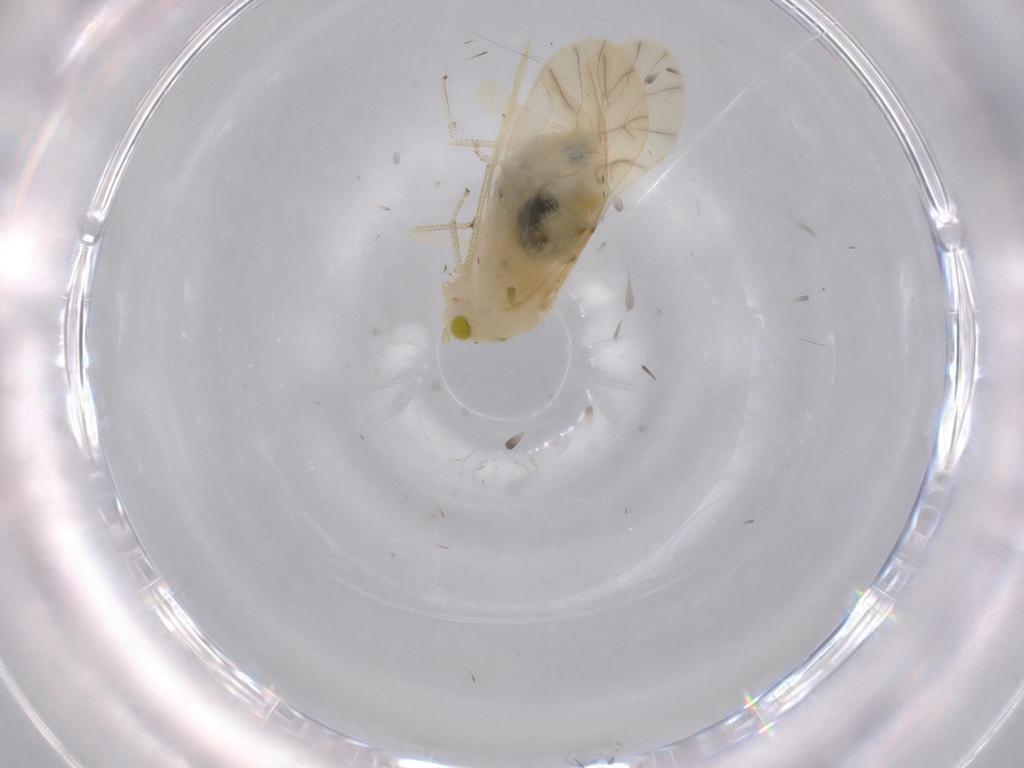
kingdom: Animalia
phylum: Arthropoda
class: Insecta
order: Psocodea
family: Caeciliusidae
